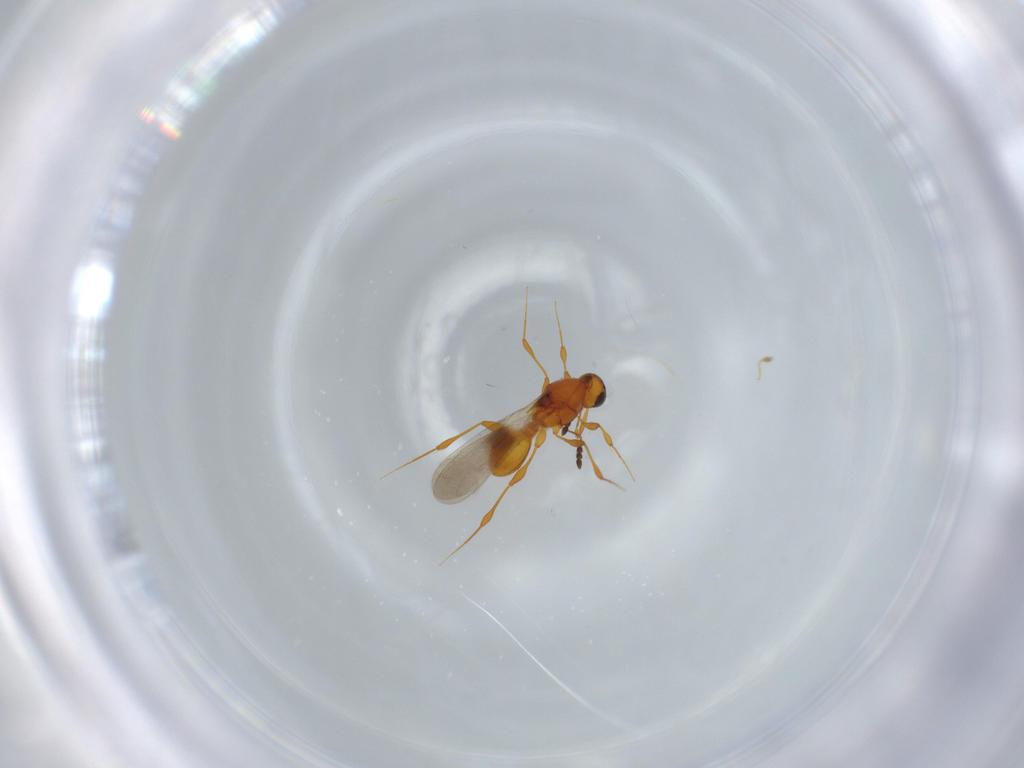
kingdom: Animalia
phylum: Arthropoda
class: Insecta
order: Hymenoptera
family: Platygastridae
